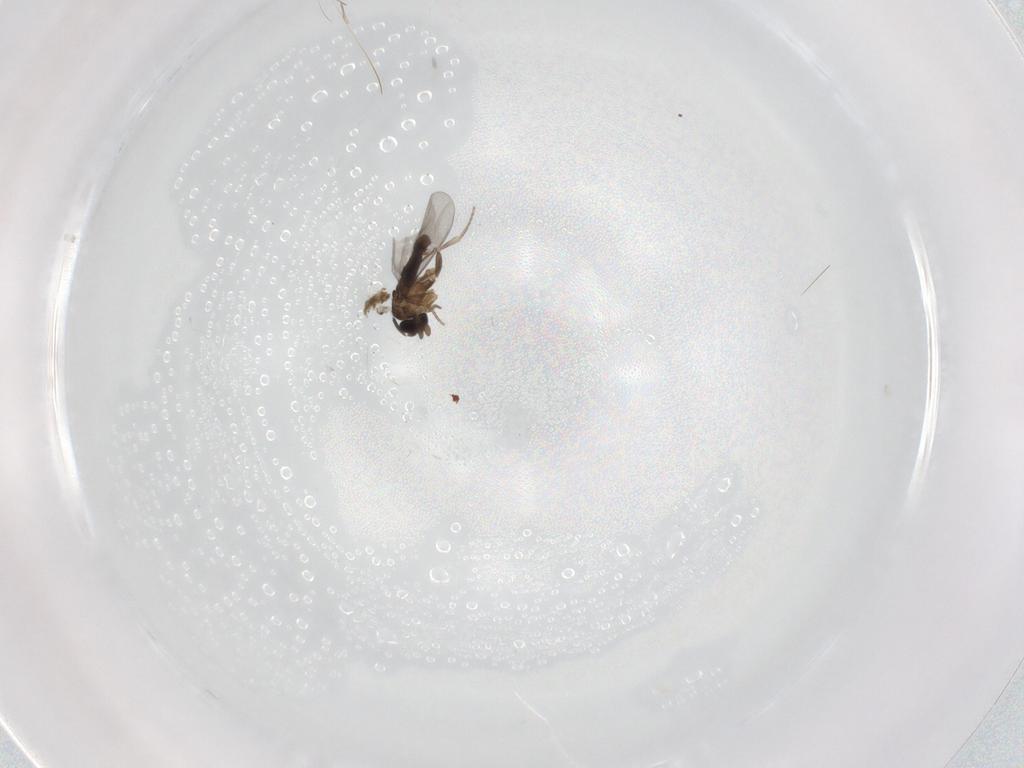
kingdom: Animalia
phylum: Arthropoda
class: Insecta
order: Diptera
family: Phoridae
